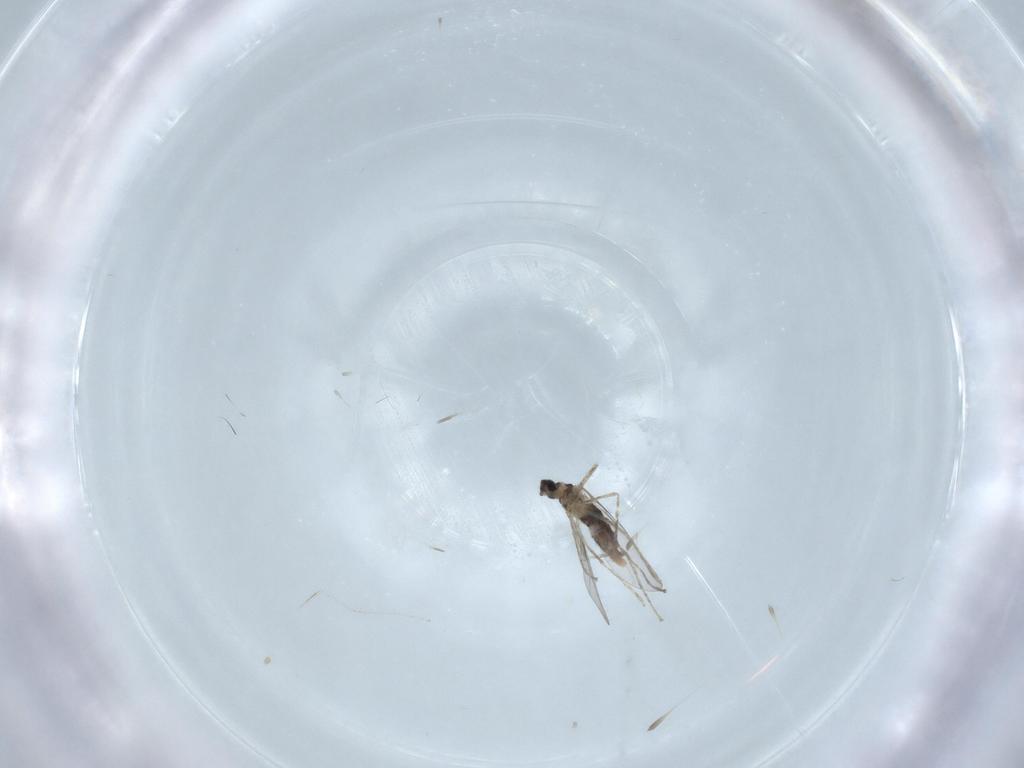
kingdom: Animalia
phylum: Arthropoda
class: Insecta
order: Diptera
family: Cecidomyiidae
